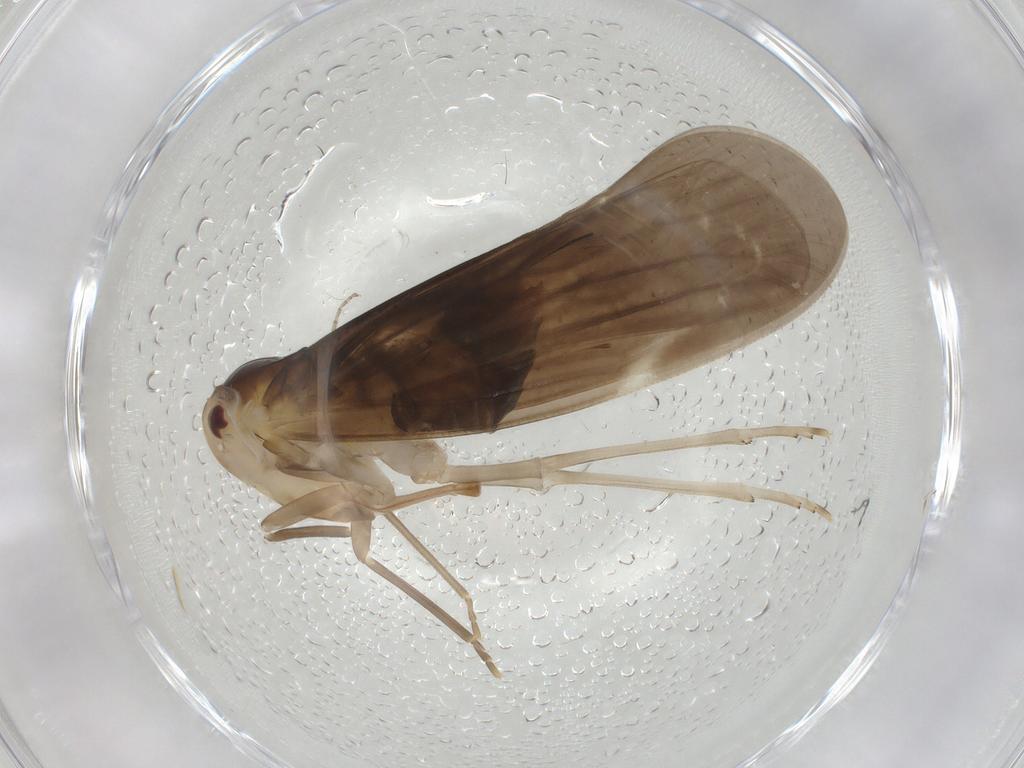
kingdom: Animalia
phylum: Arthropoda
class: Insecta
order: Hemiptera
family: Derbidae
